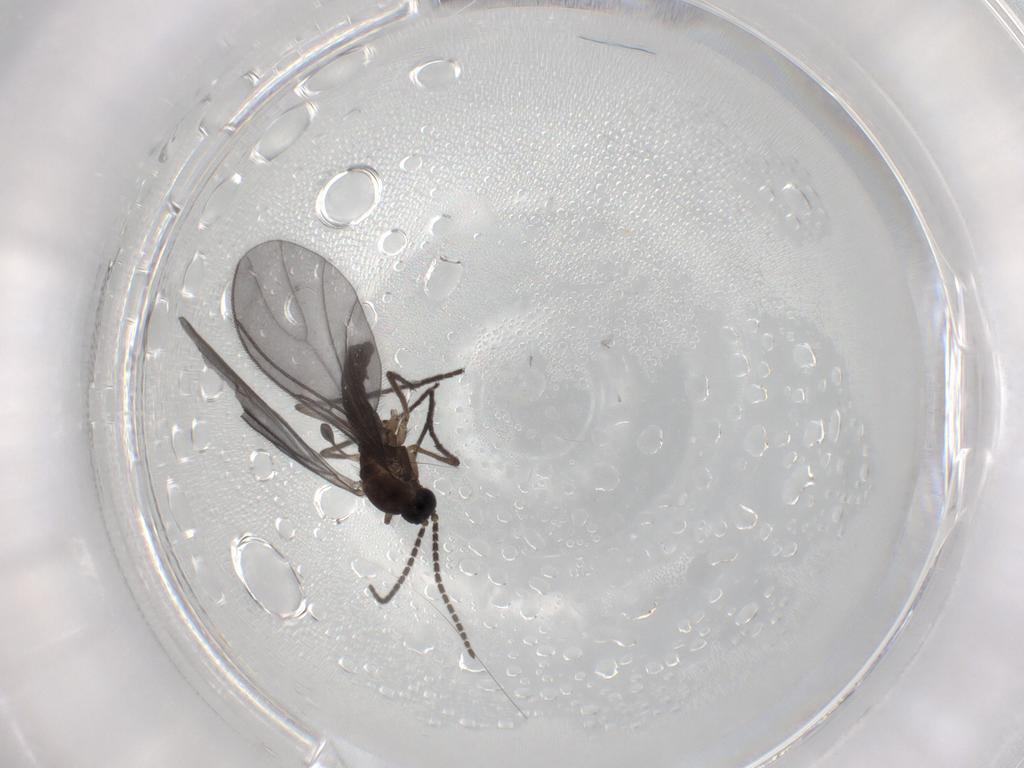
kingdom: Animalia
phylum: Arthropoda
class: Insecta
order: Diptera
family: Sciaridae
